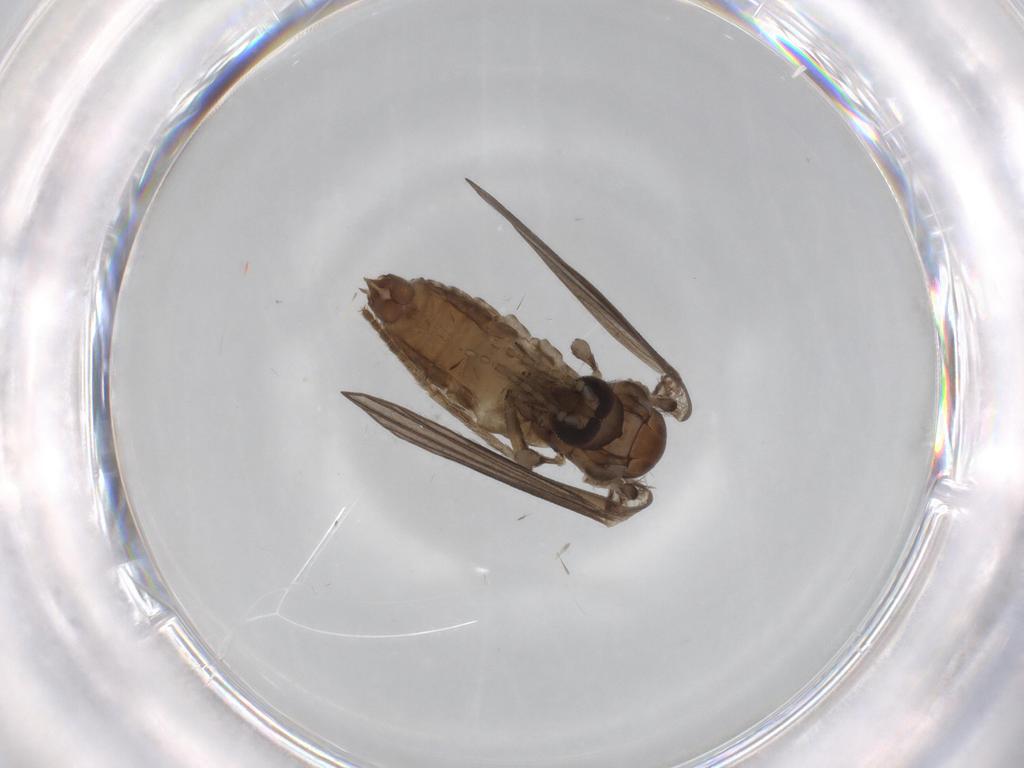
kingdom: Animalia
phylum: Arthropoda
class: Insecta
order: Diptera
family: Psychodidae
